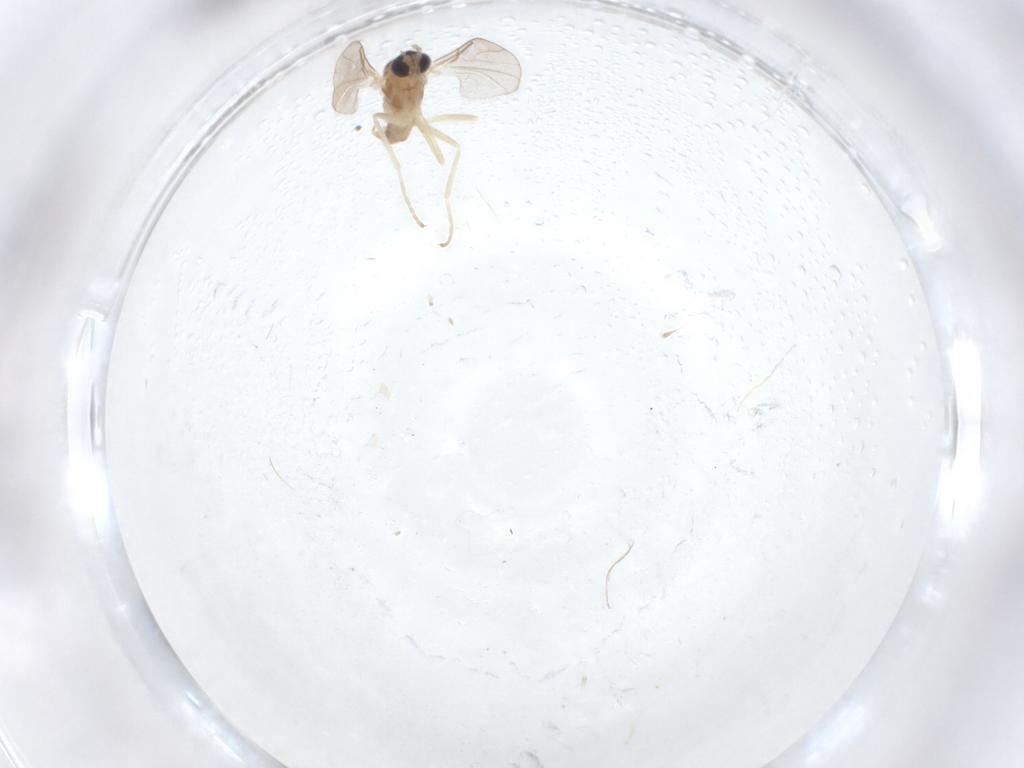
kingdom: Animalia
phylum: Arthropoda
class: Insecta
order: Diptera
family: Cecidomyiidae
